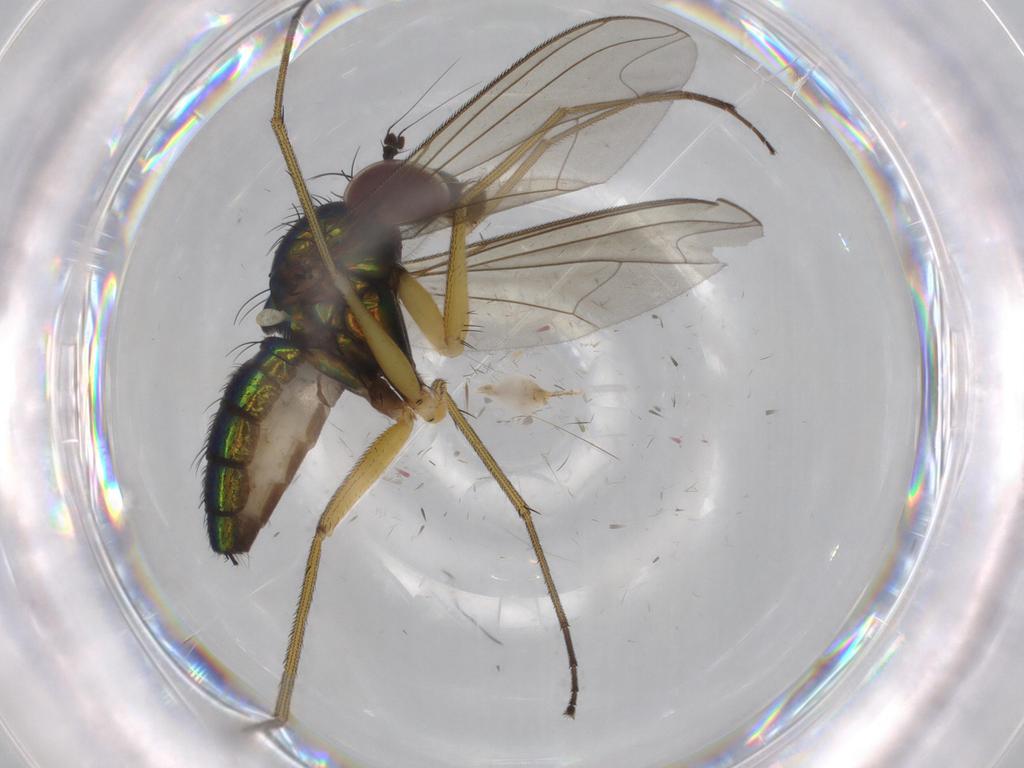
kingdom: Animalia
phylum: Arthropoda
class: Insecta
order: Diptera
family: Dolichopodidae
